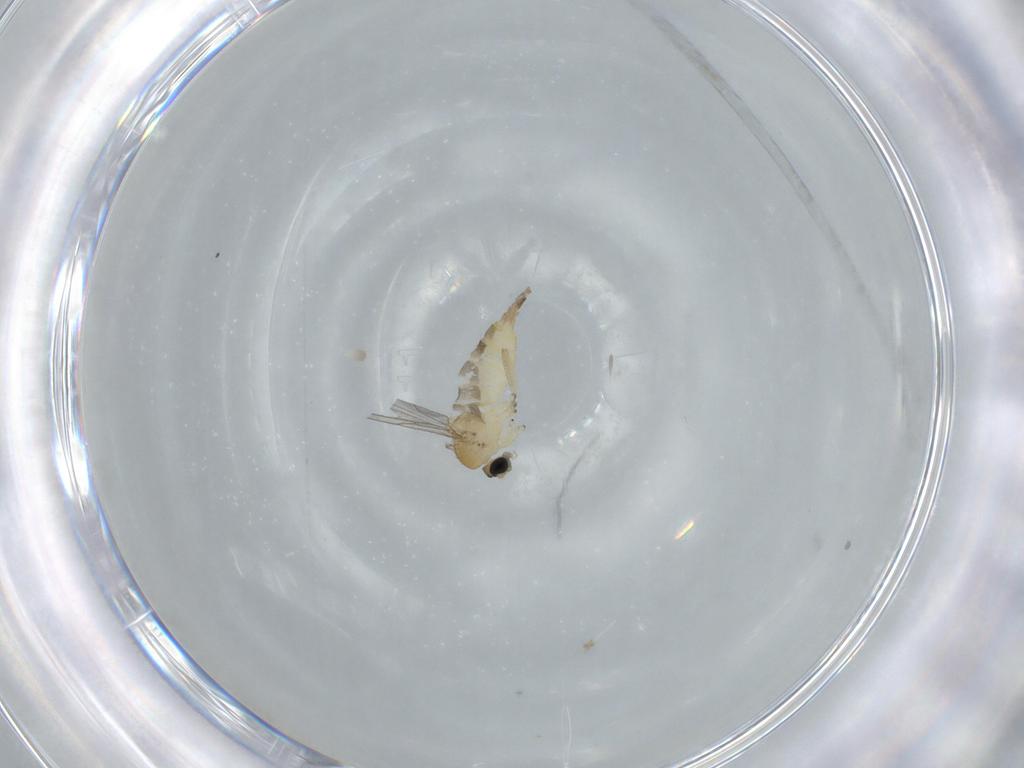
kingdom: Animalia
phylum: Arthropoda
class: Insecta
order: Diptera
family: Sciaridae
